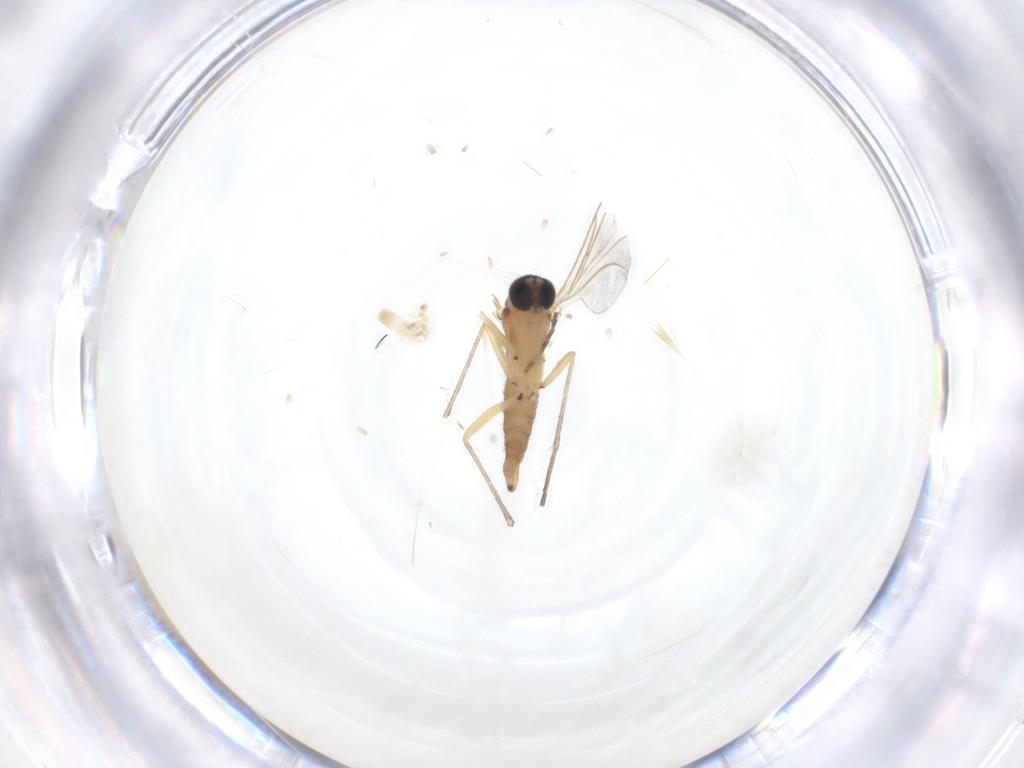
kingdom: Animalia
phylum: Arthropoda
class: Insecta
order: Diptera
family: Sciaridae
